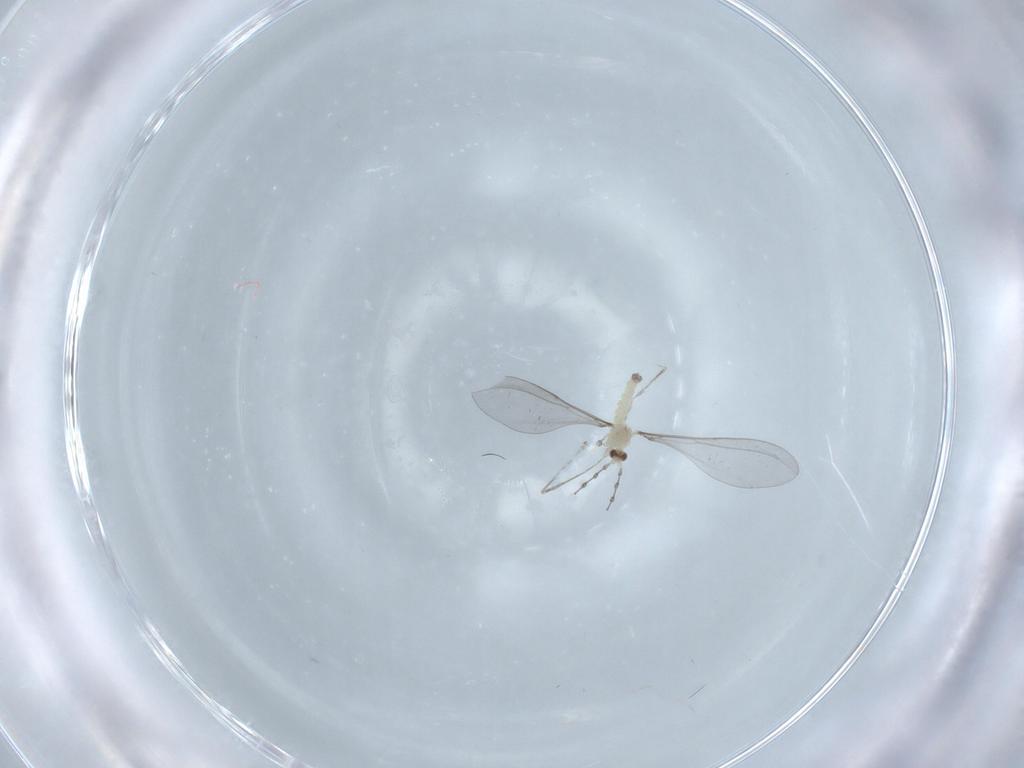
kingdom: Animalia
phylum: Arthropoda
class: Insecta
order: Diptera
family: Cecidomyiidae
